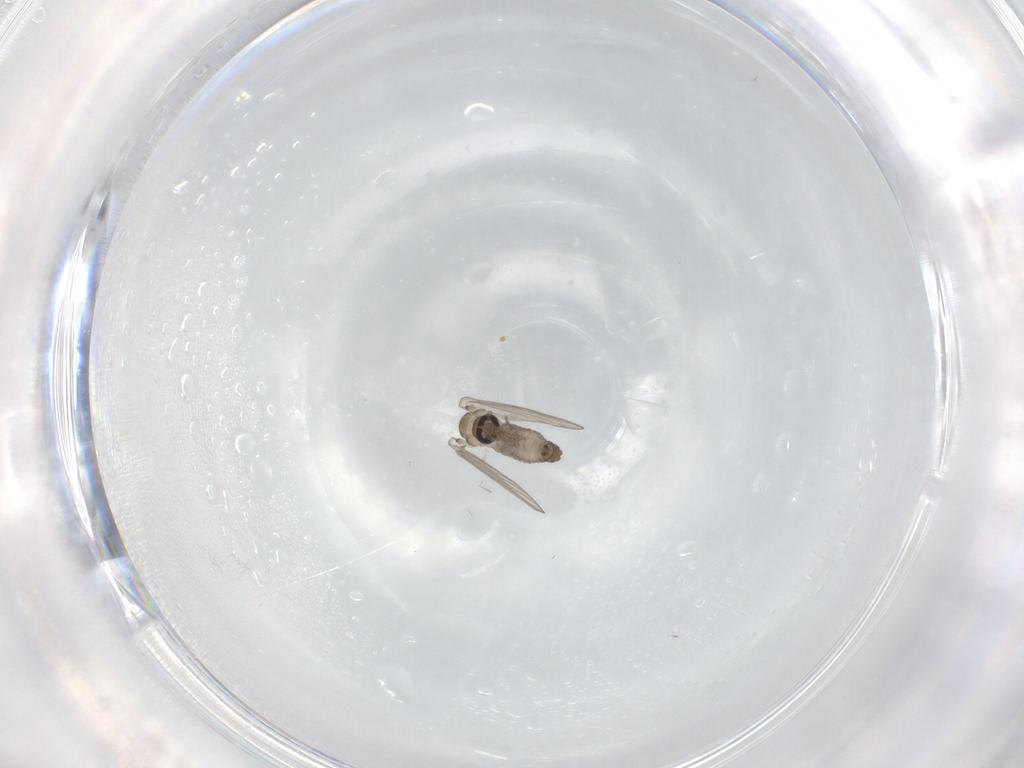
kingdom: Animalia
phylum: Arthropoda
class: Insecta
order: Diptera
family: Psychodidae
